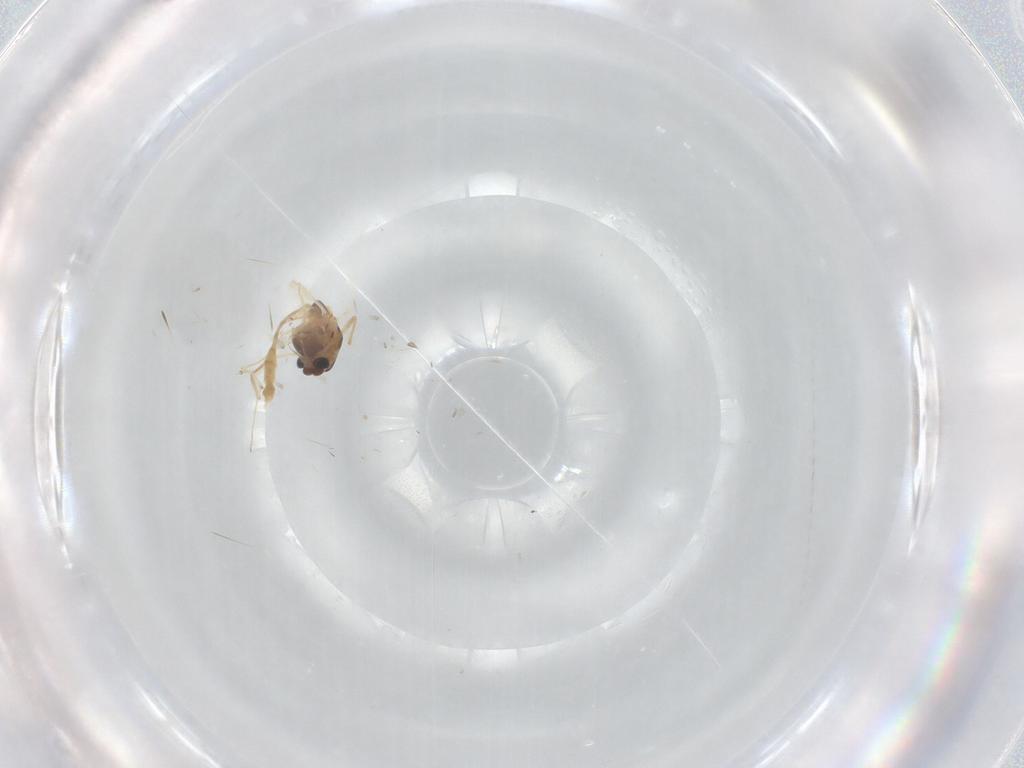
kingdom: Animalia
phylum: Arthropoda
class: Insecta
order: Diptera
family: Chironomidae
